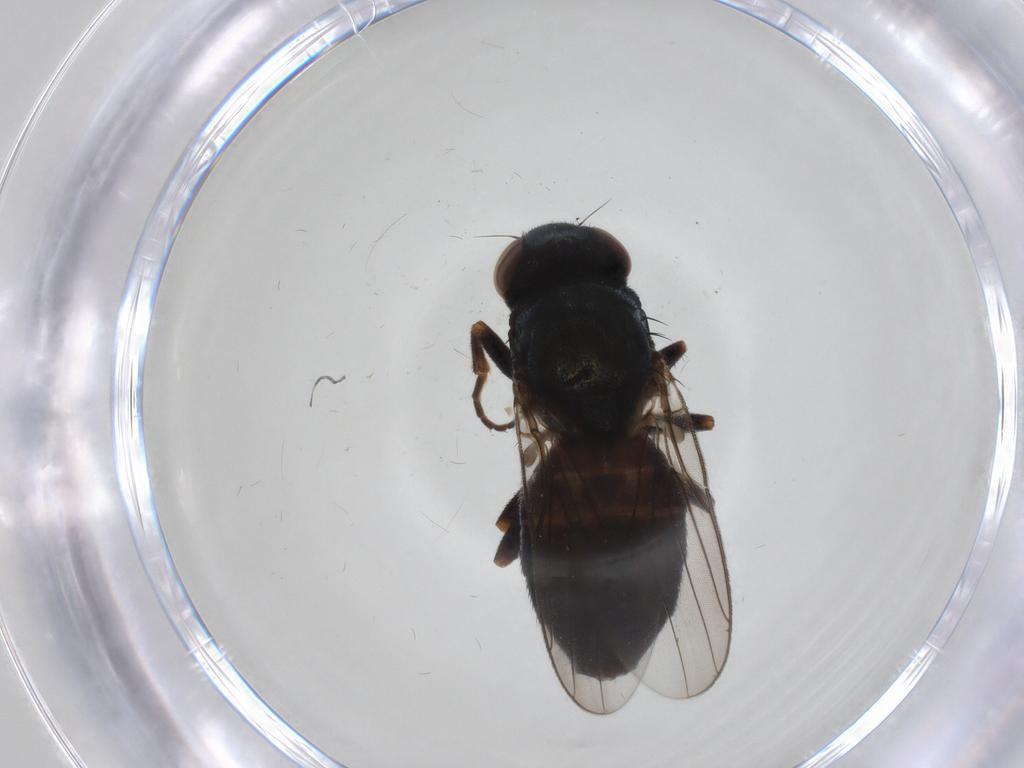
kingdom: Animalia
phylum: Arthropoda
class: Insecta
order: Diptera
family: Chloropidae
